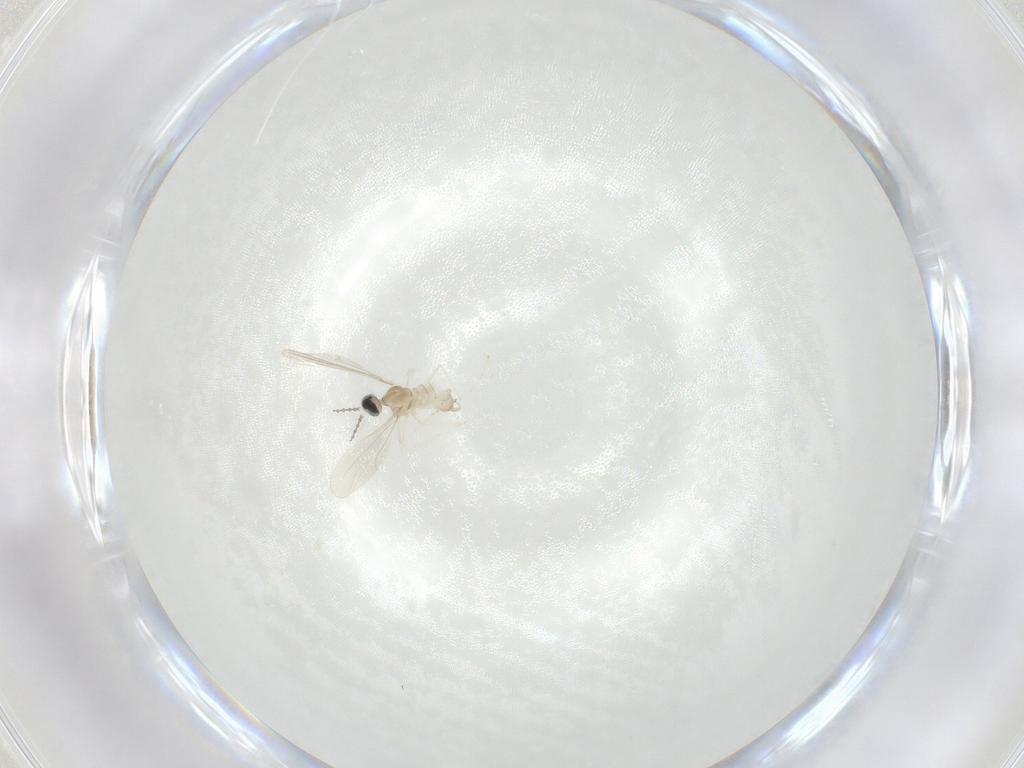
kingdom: Animalia
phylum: Arthropoda
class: Insecta
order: Diptera
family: Cecidomyiidae
